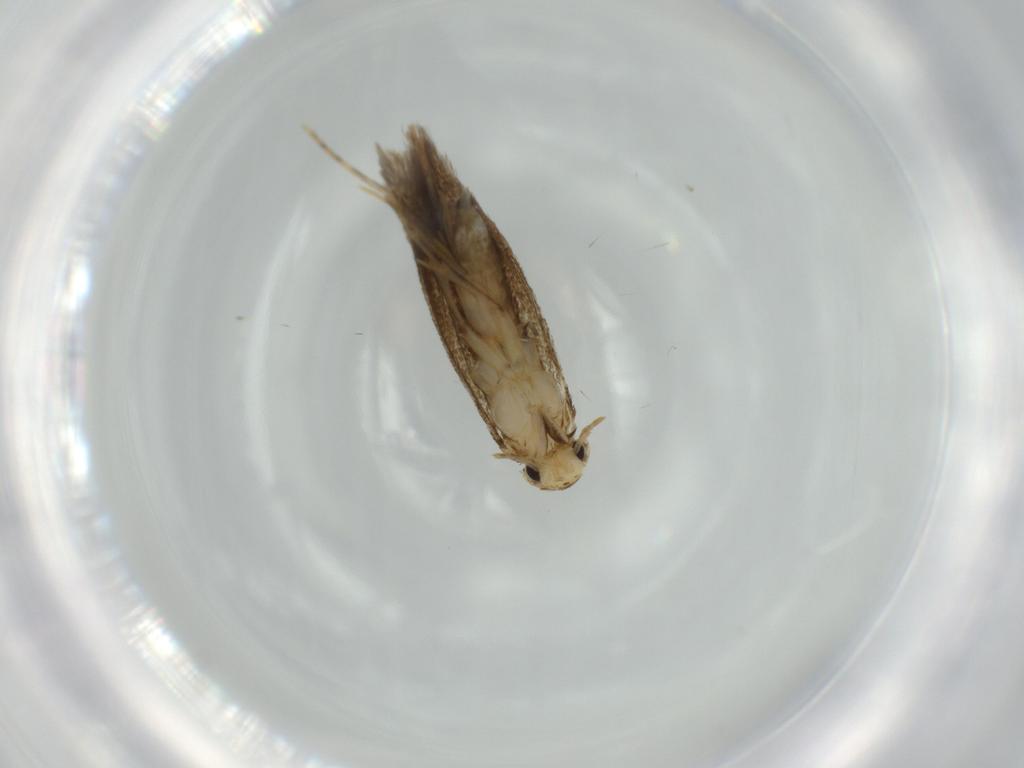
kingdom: Animalia
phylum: Arthropoda
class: Insecta
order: Lepidoptera
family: Tineidae
